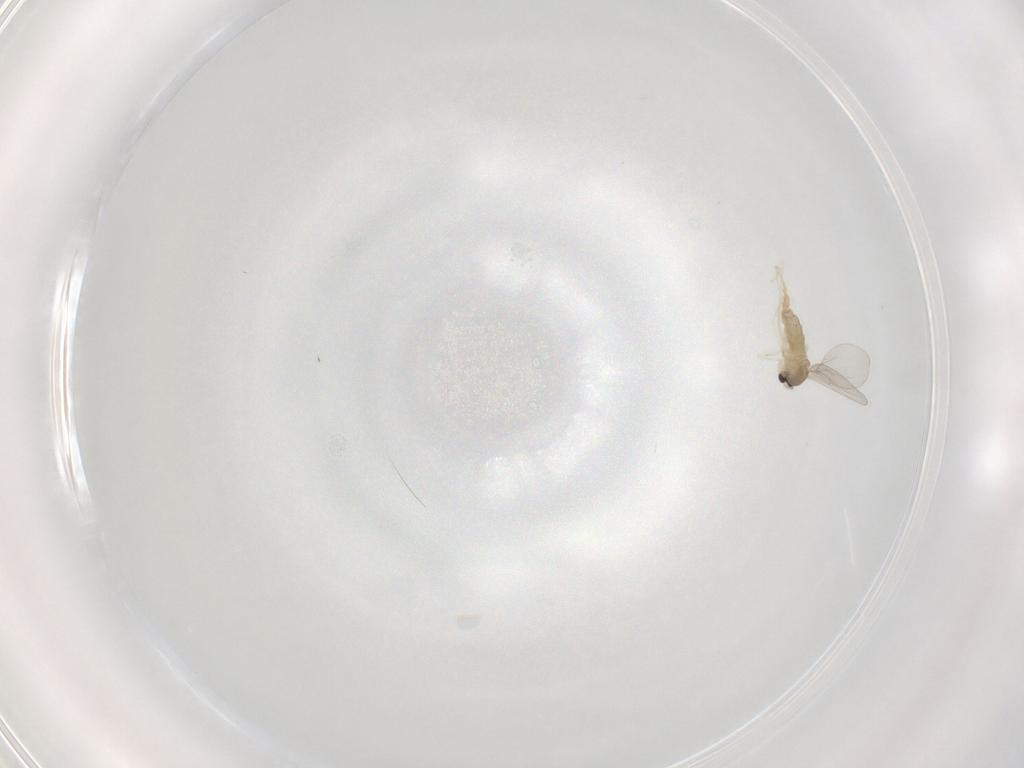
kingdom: Animalia
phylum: Arthropoda
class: Insecta
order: Diptera
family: Cecidomyiidae
